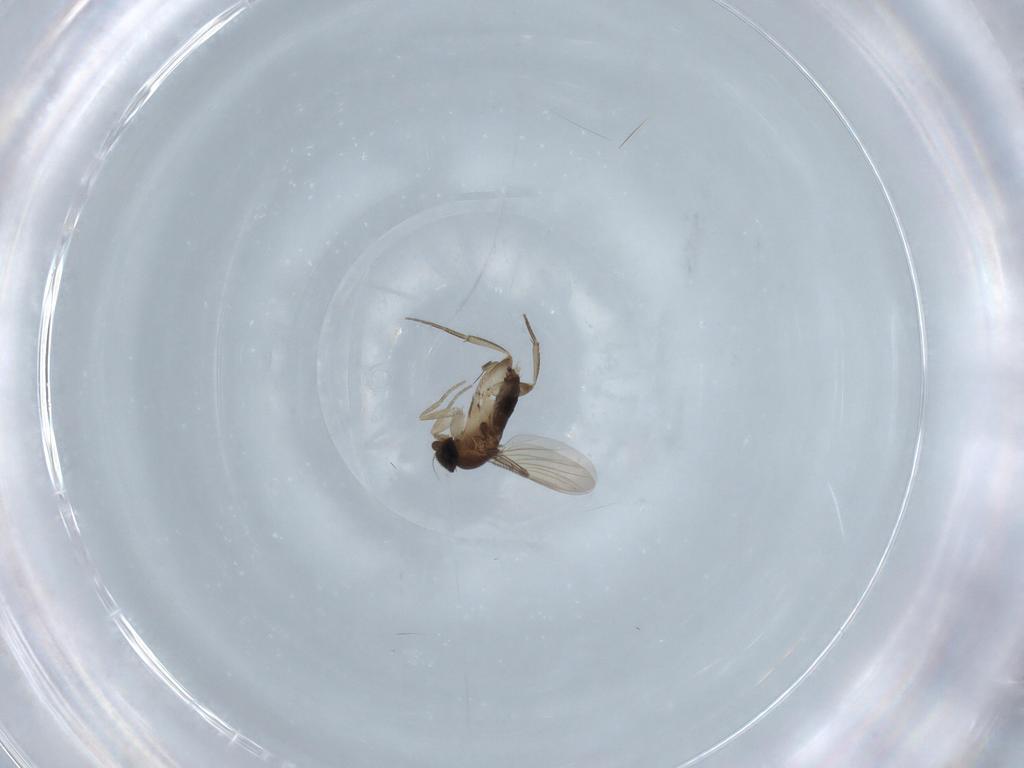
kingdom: Animalia
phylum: Arthropoda
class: Insecta
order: Diptera
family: Phoridae
